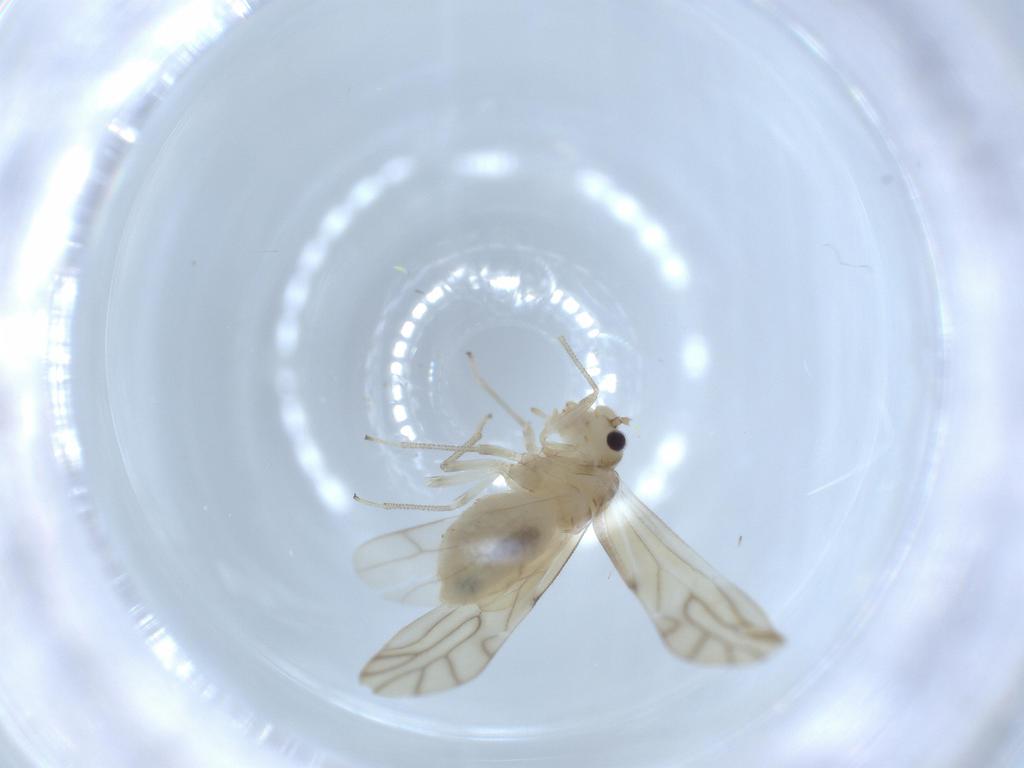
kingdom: Animalia
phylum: Arthropoda
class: Insecta
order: Psocodea
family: Caeciliusidae
